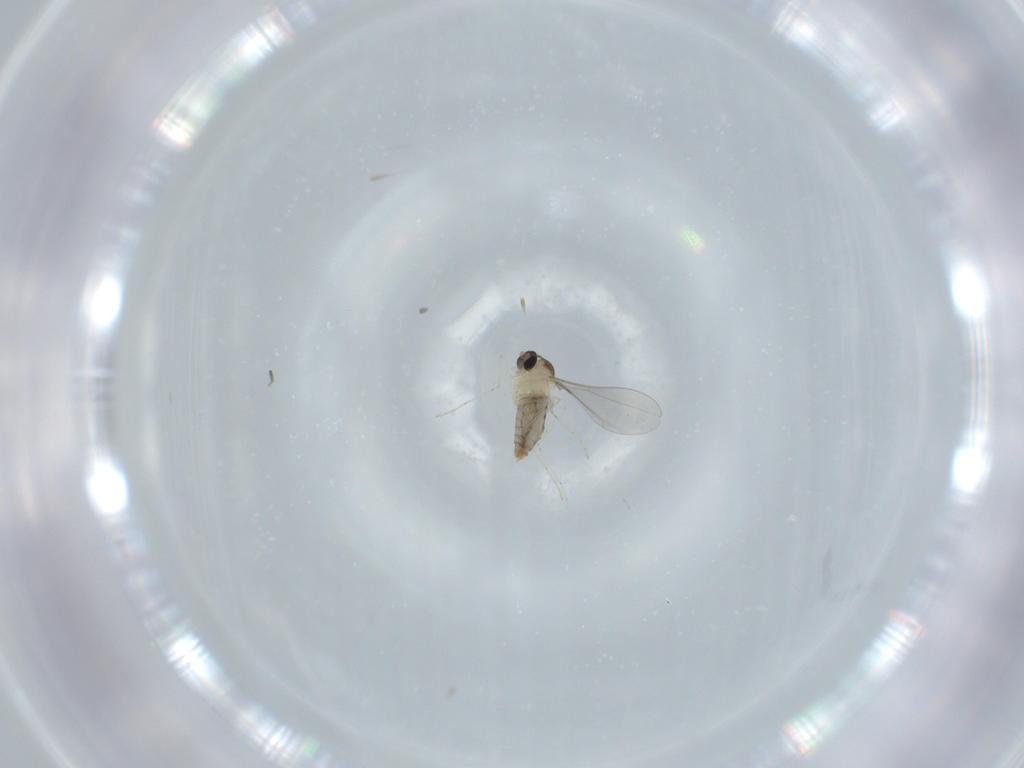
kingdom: Animalia
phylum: Arthropoda
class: Insecta
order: Diptera
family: Cecidomyiidae
